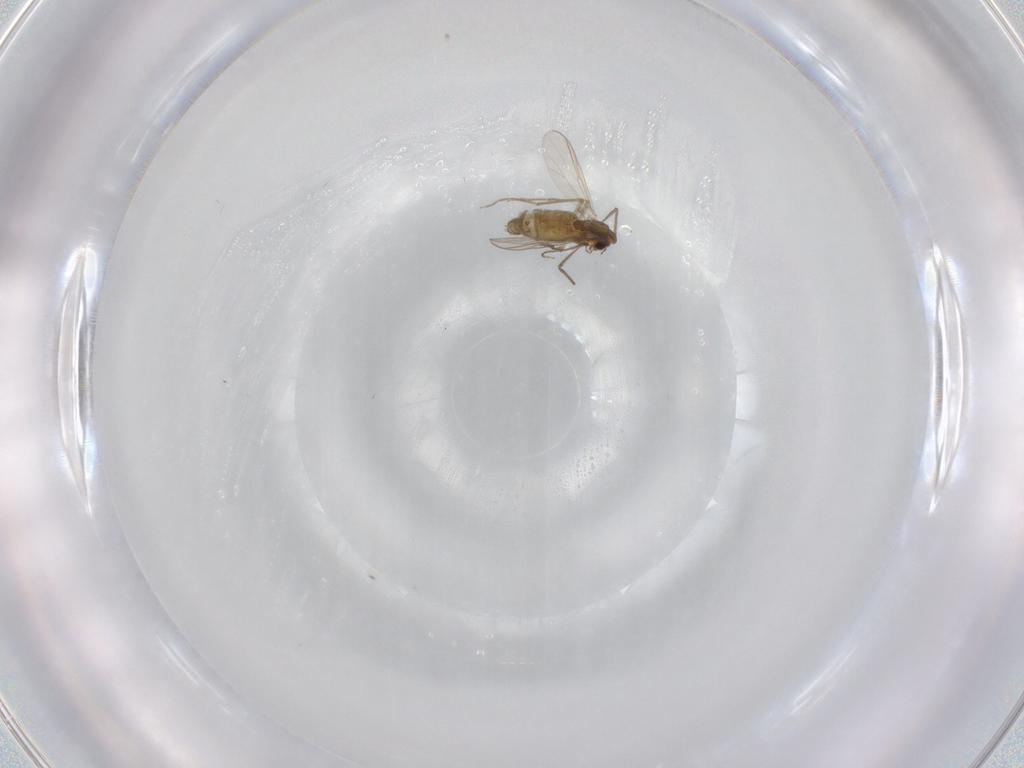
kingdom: Animalia
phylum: Arthropoda
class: Insecta
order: Diptera
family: Chironomidae
